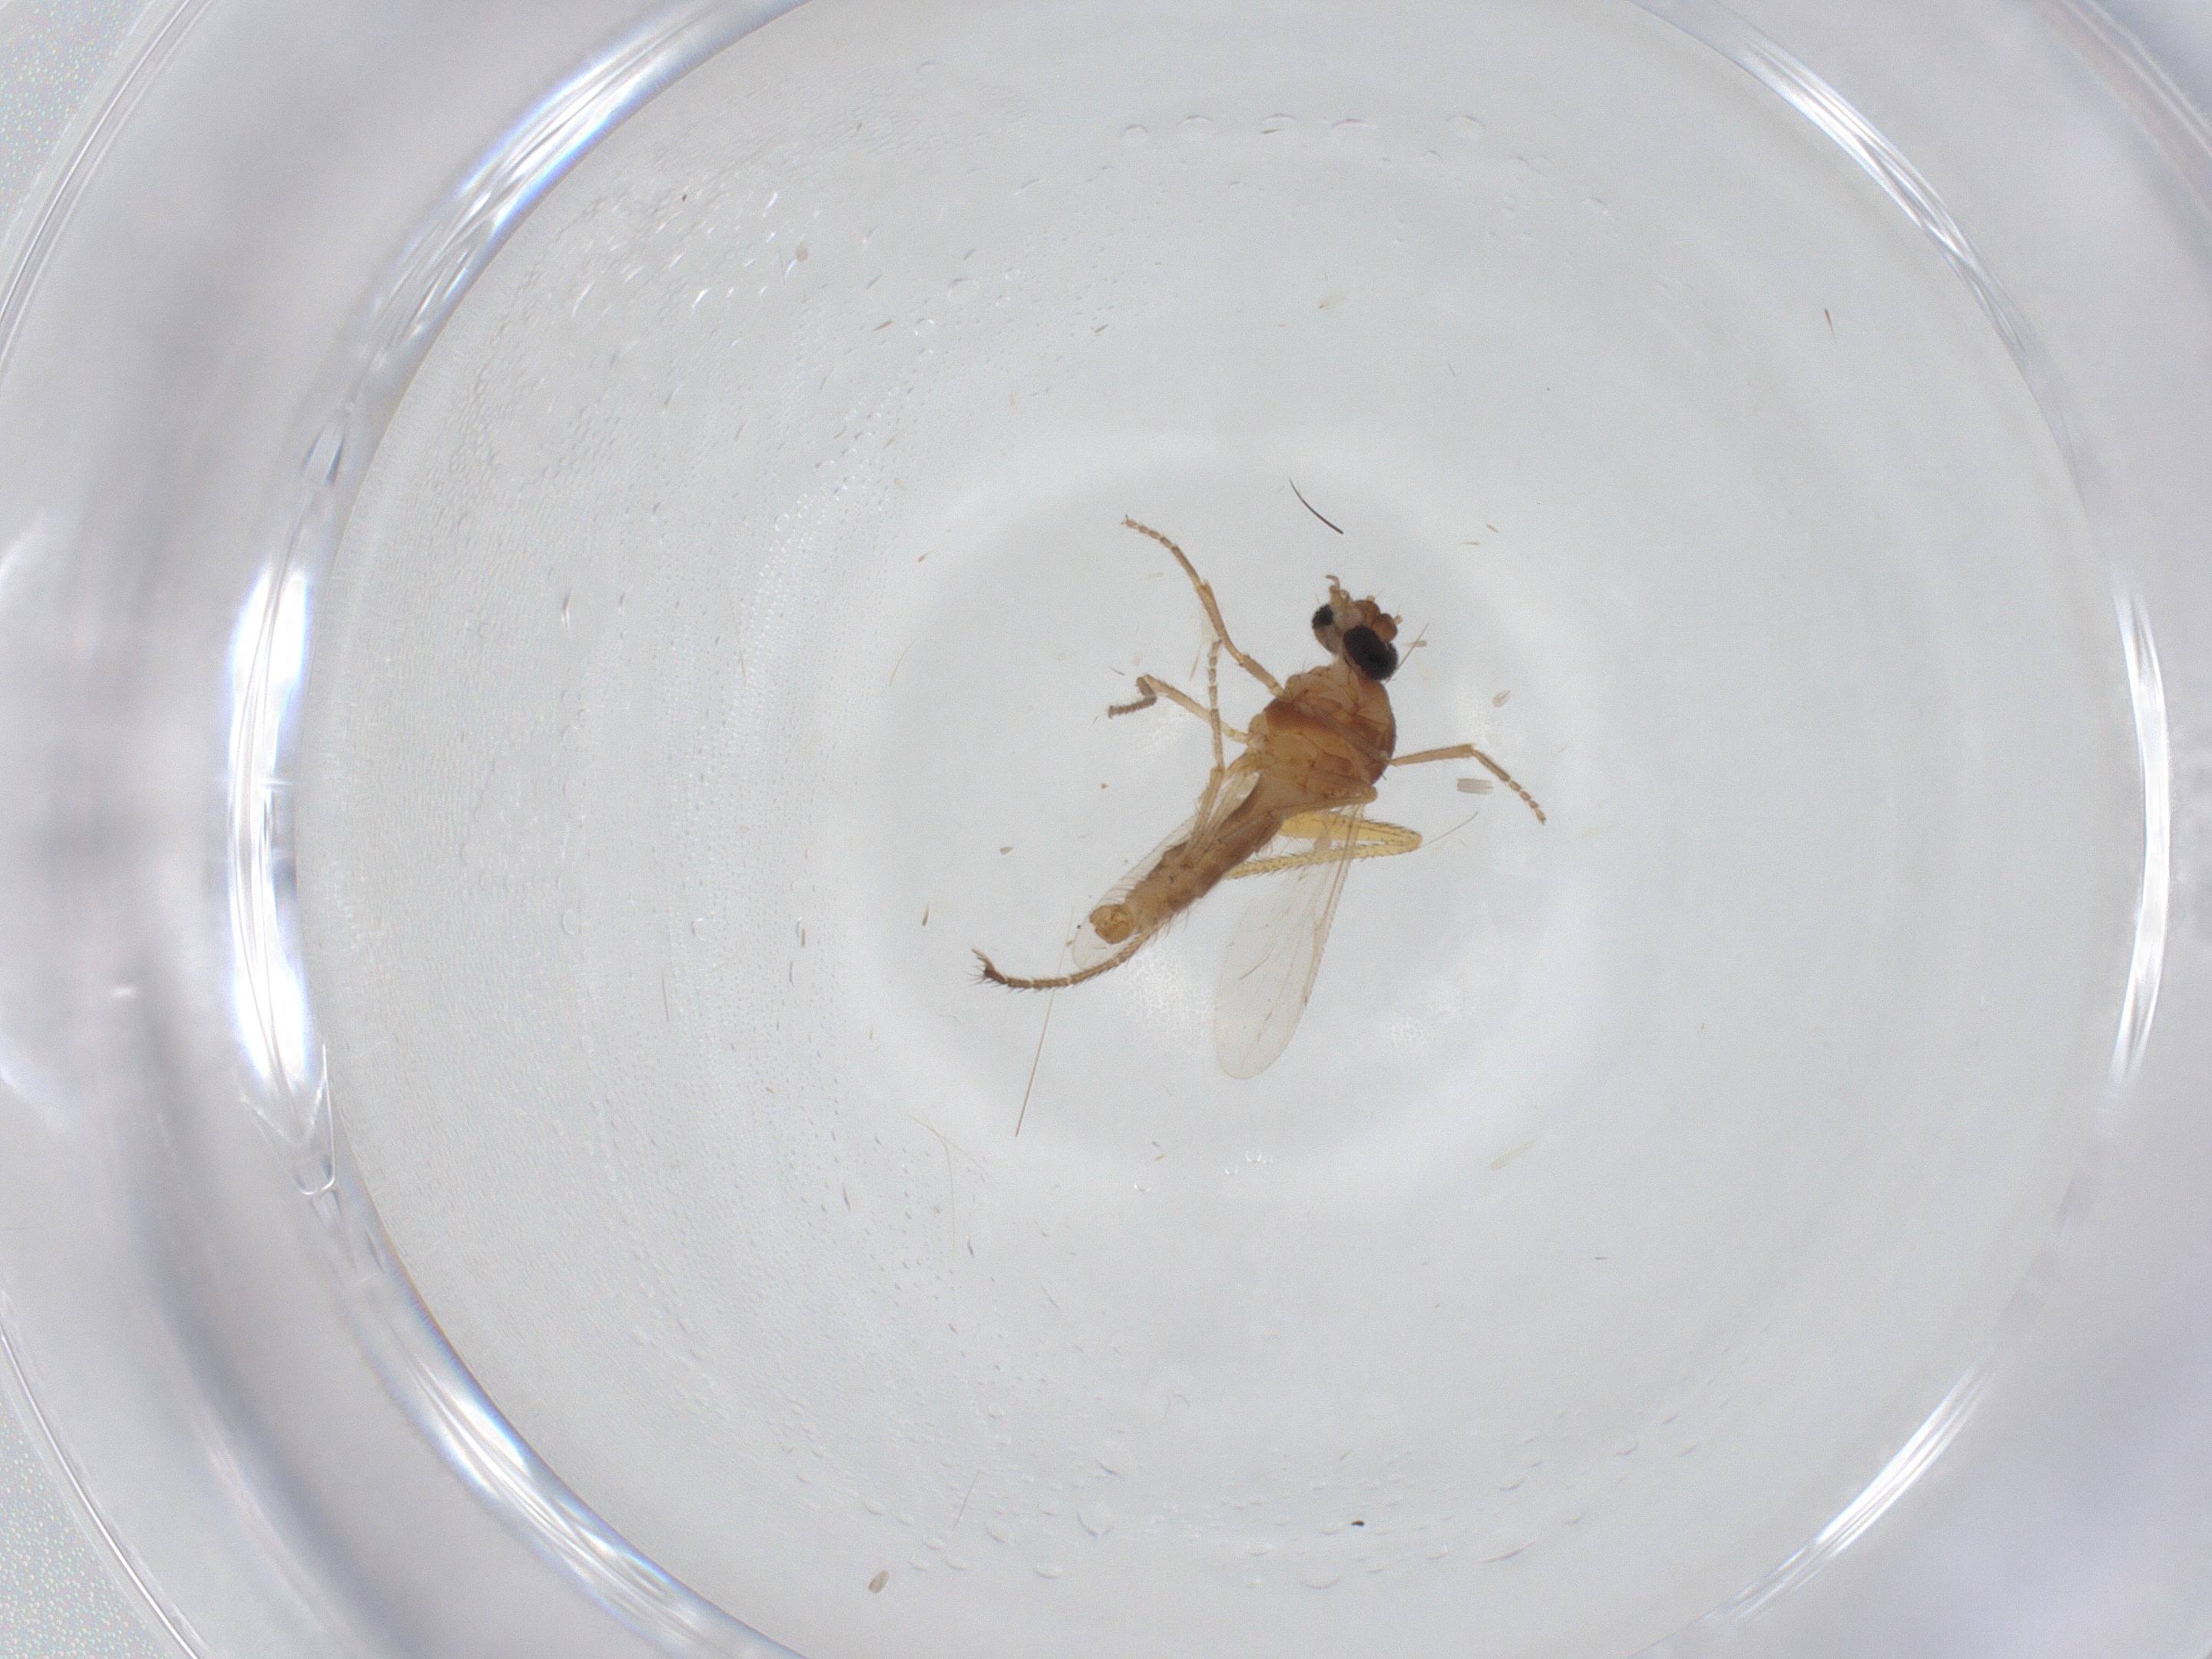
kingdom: Animalia
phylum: Arthropoda
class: Insecta
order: Diptera
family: Ceratopogonidae
